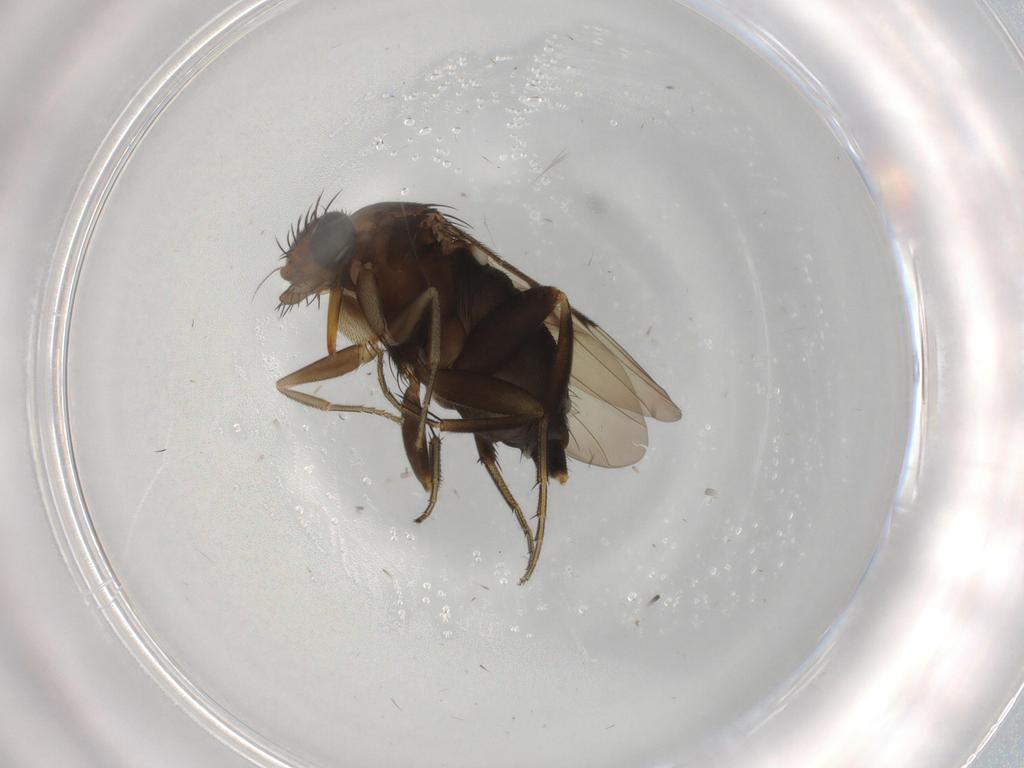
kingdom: Animalia
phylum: Arthropoda
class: Insecta
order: Diptera
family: Phoridae
